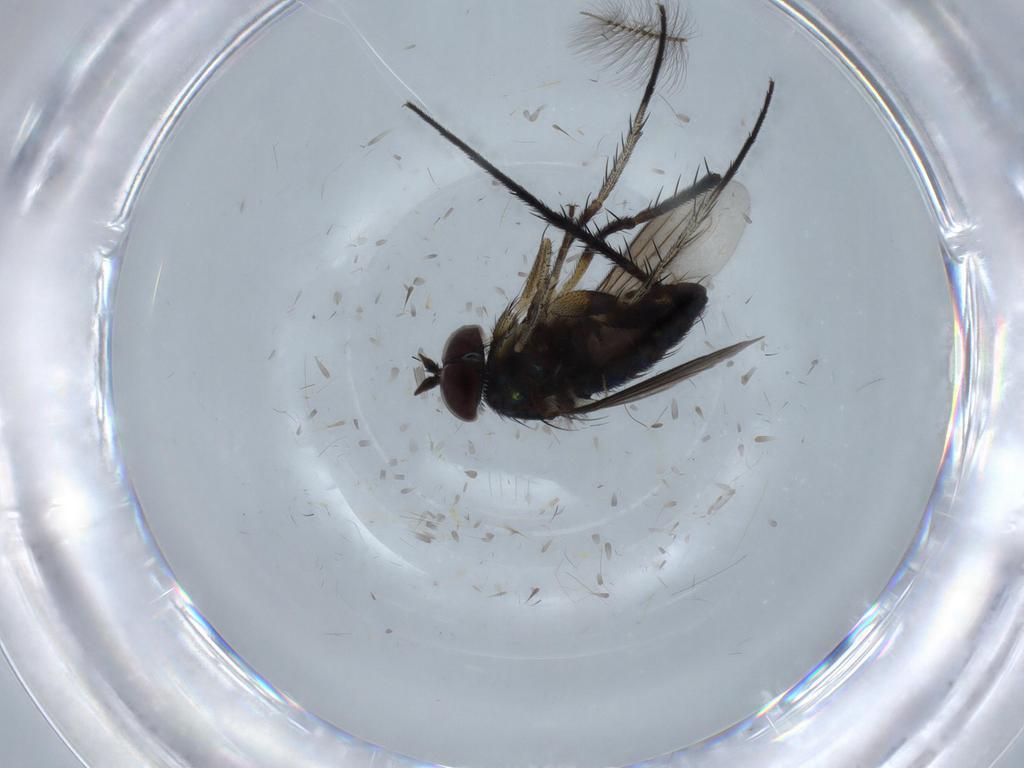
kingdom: Animalia
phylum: Arthropoda
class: Insecta
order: Diptera
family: Dolichopodidae
